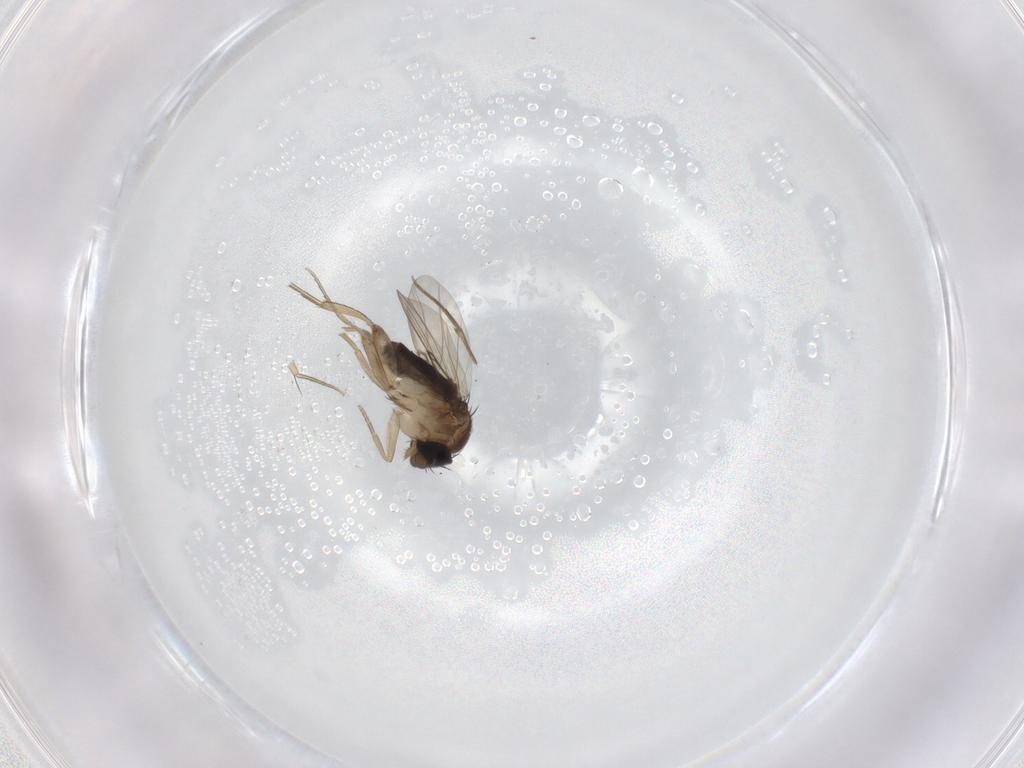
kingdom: Animalia
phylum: Arthropoda
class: Insecta
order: Diptera
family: Phoridae
